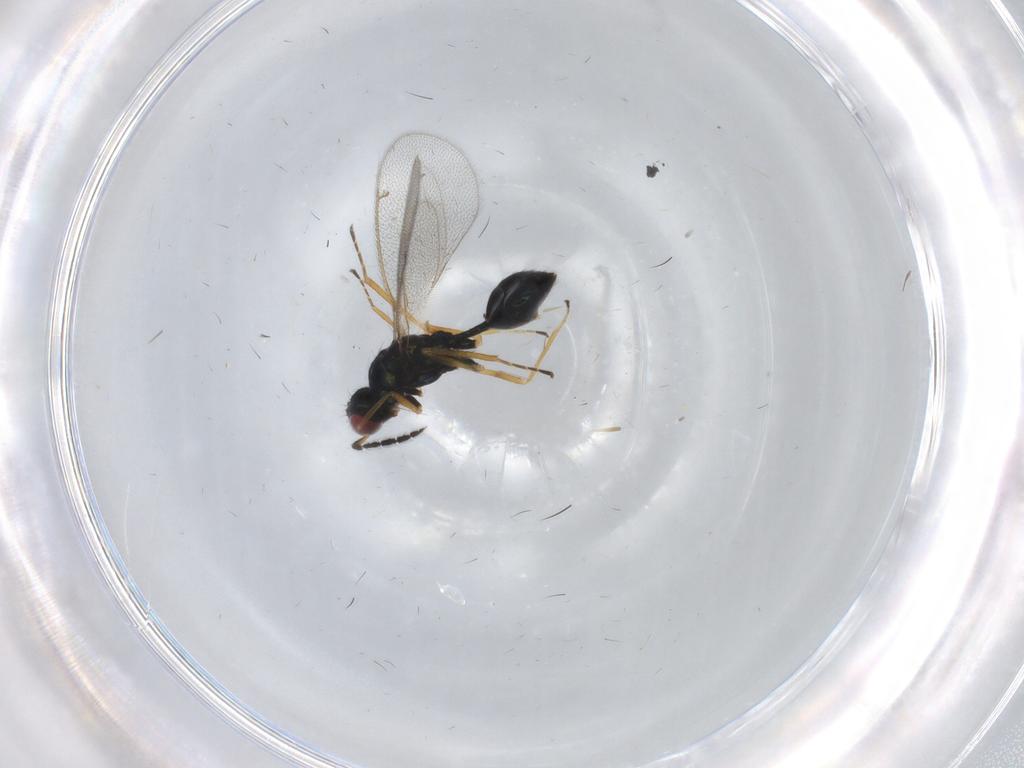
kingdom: Animalia
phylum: Arthropoda
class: Insecta
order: Hymenoptera
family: Eulophidae
